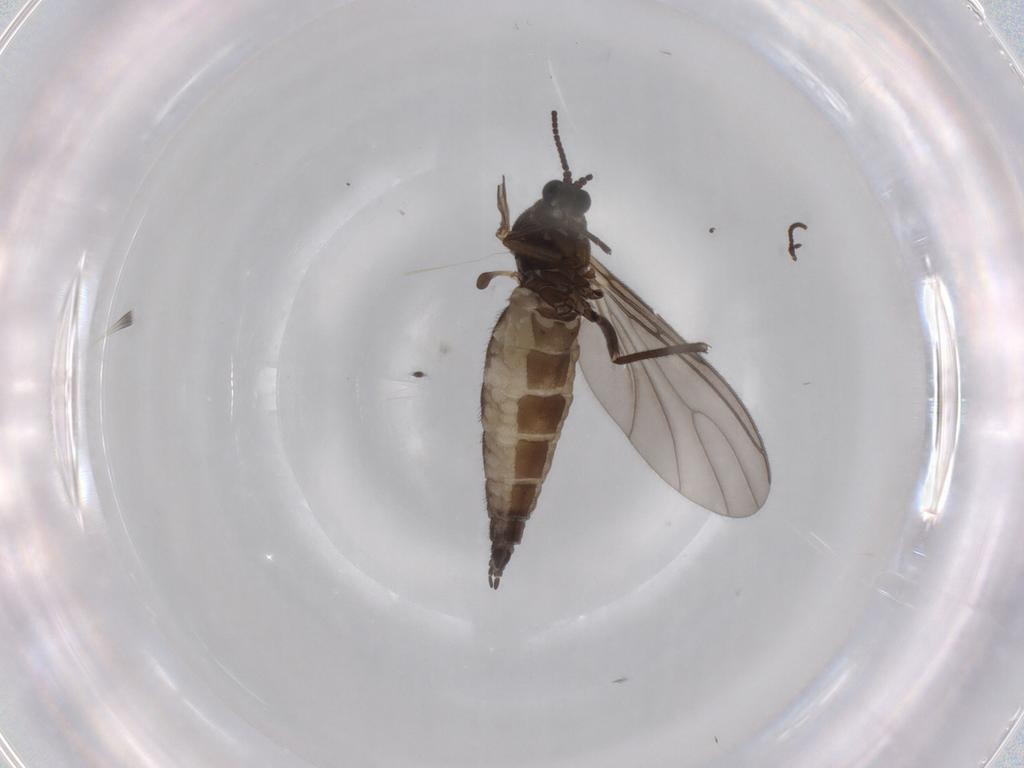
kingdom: Animalia
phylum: Arthropoda
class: Insecta
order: Diptera
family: Sciaridae
